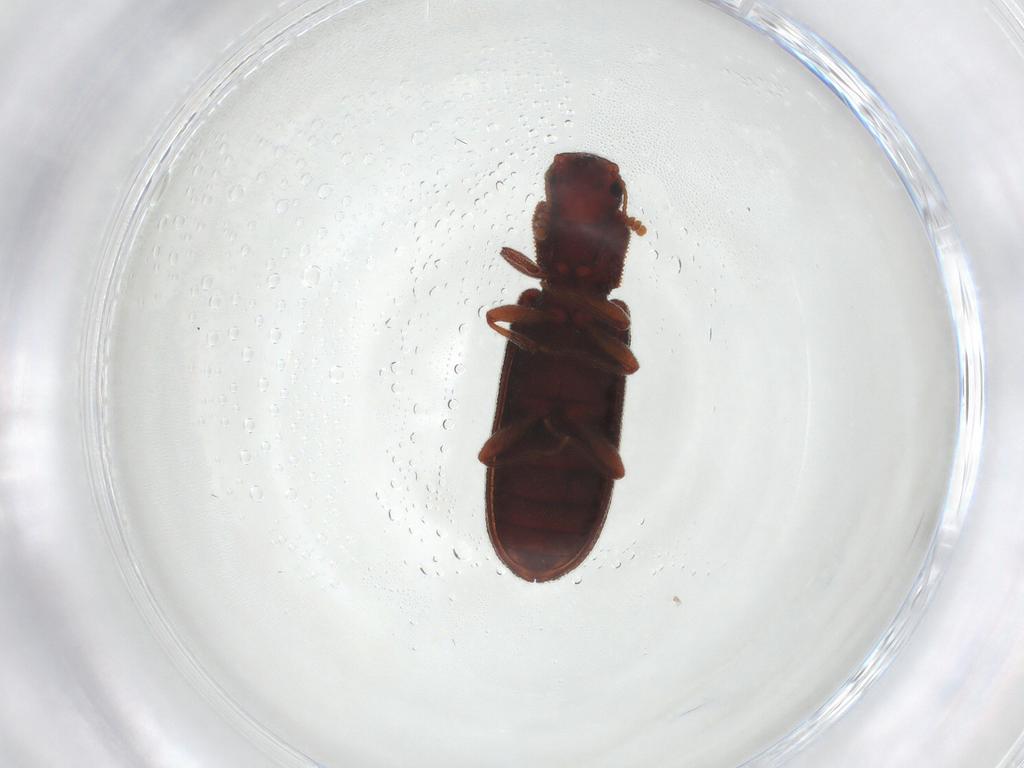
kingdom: Animalia
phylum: Arthropoda
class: Insecta
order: Coleoptera
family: Zopheridae
